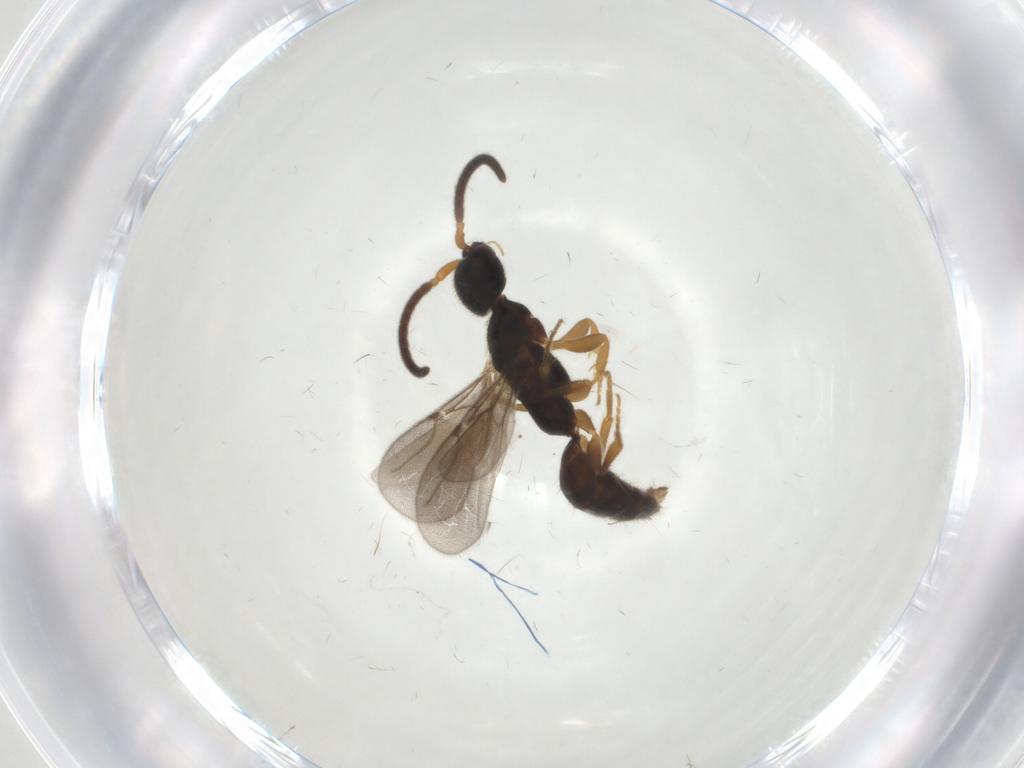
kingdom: Animalia
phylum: Arthropoda
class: Insecta
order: Hymenoptera
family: Bethylidae
